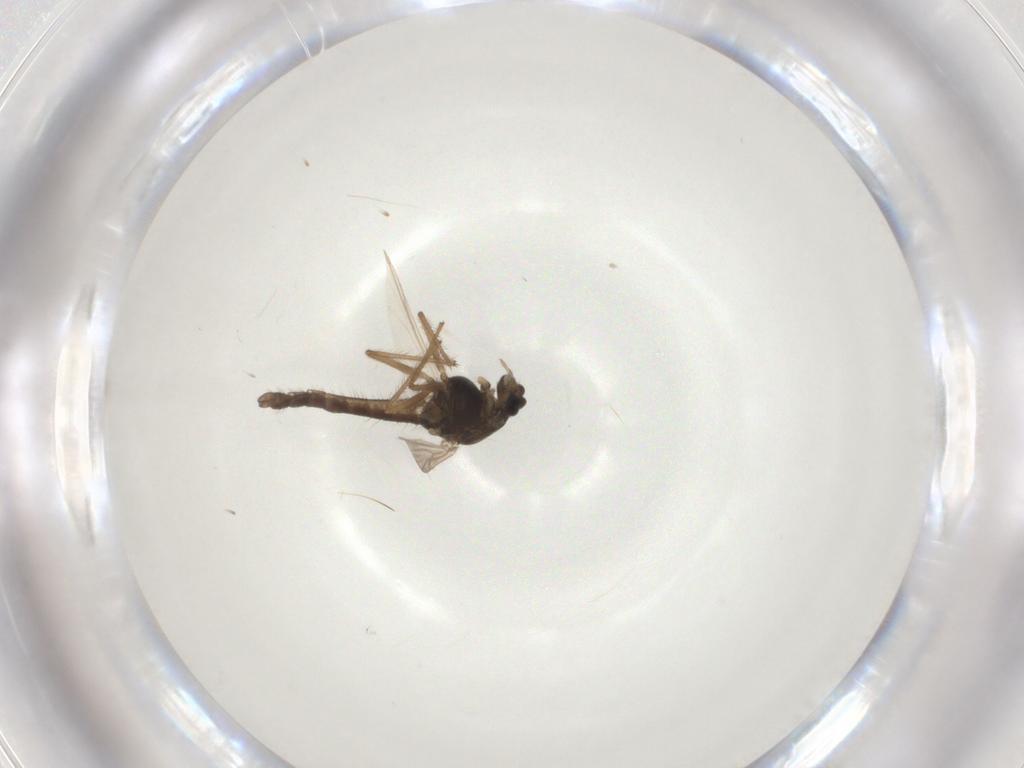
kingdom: Animalia
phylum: Arthropoda
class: Insecta
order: Diptera
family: Chironomidae
